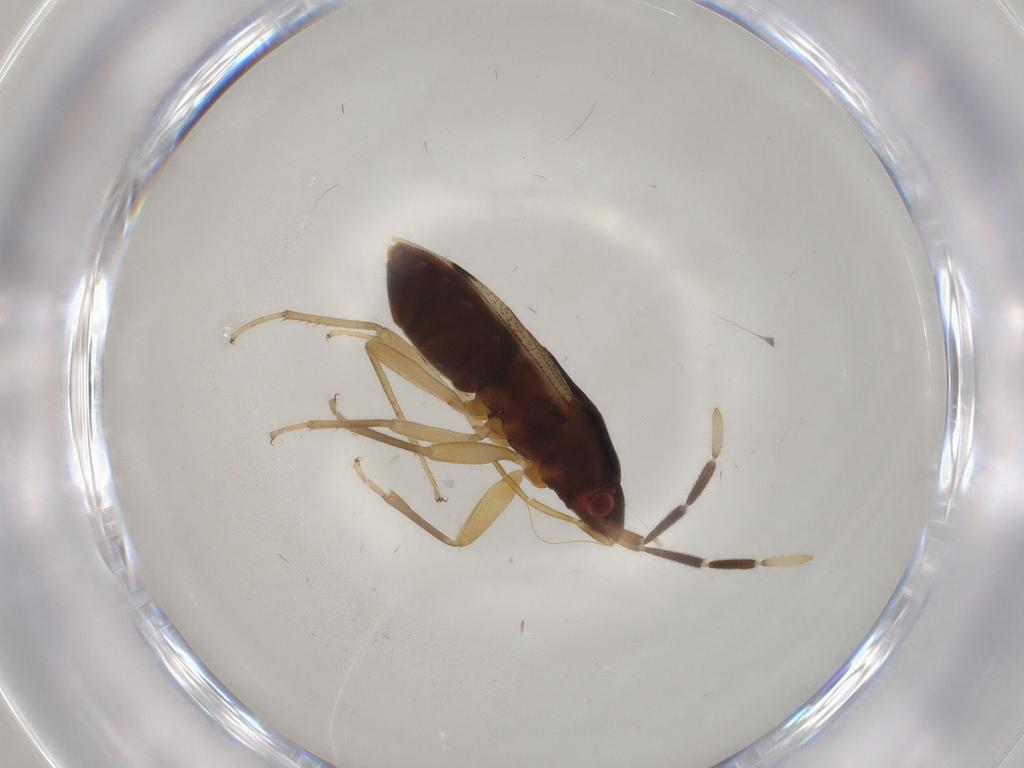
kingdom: Animalia
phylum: Arthropoda
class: Insecta
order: Hemiptera
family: Rhyparochromidae
